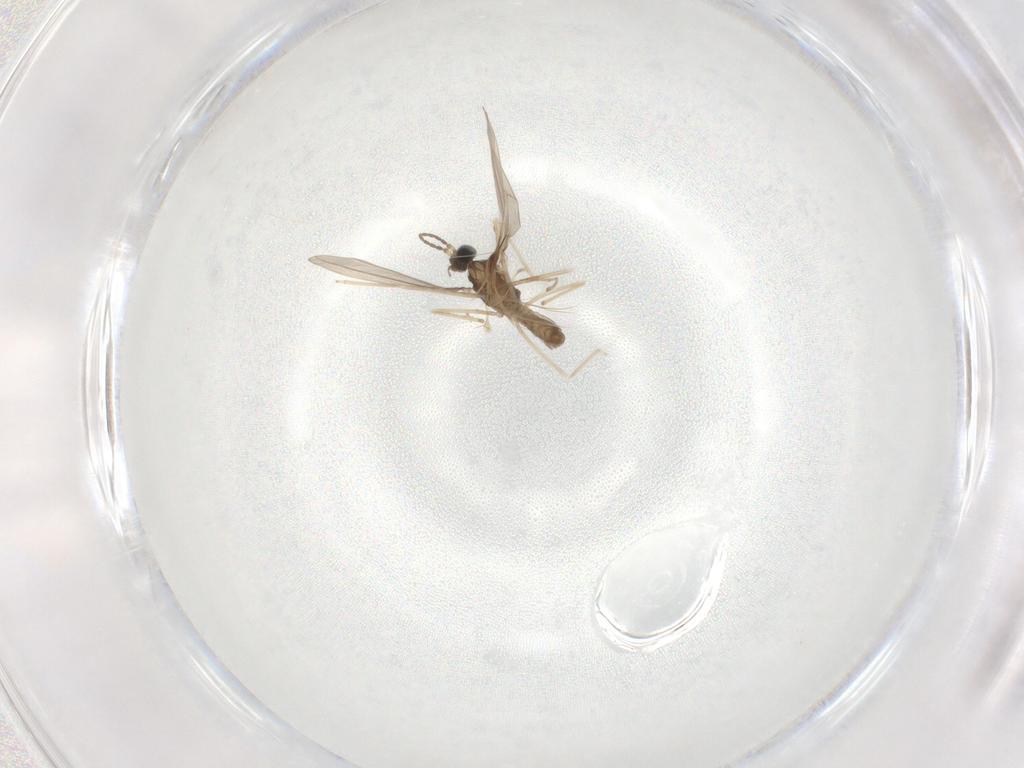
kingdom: Animalia
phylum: Arthropoda
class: Insecta
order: Diptera
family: Cecidomyiidae
